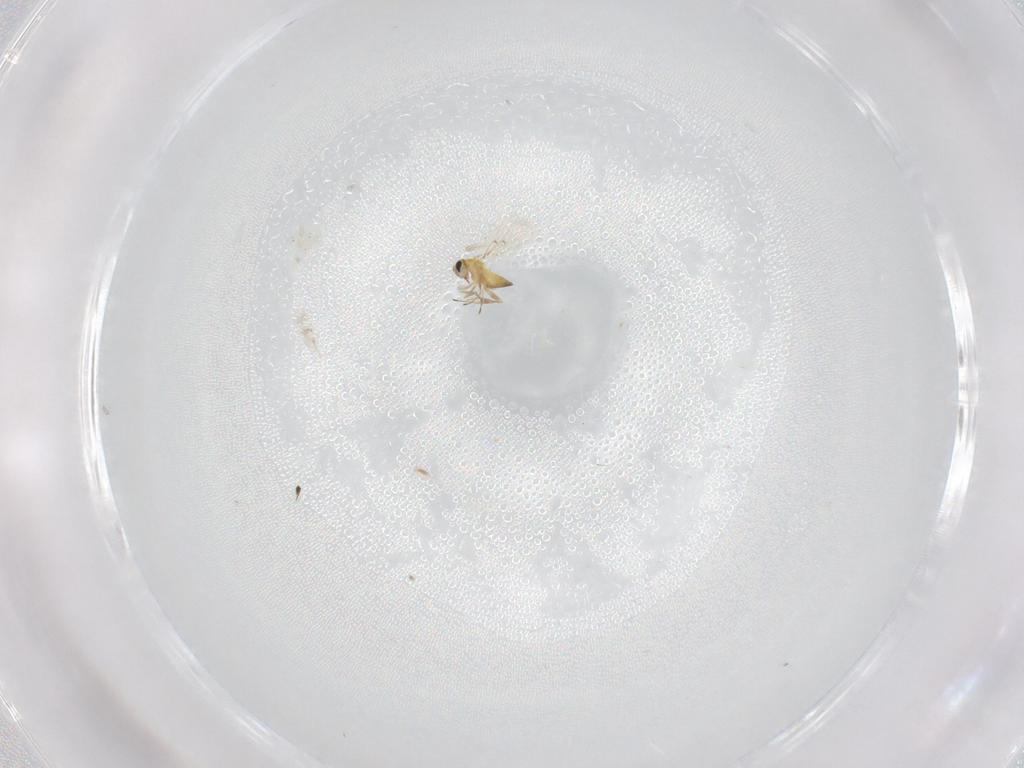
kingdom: Animalia
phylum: Arthropoda
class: Insecta
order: Hymenoptera
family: Trichogrammatidae
